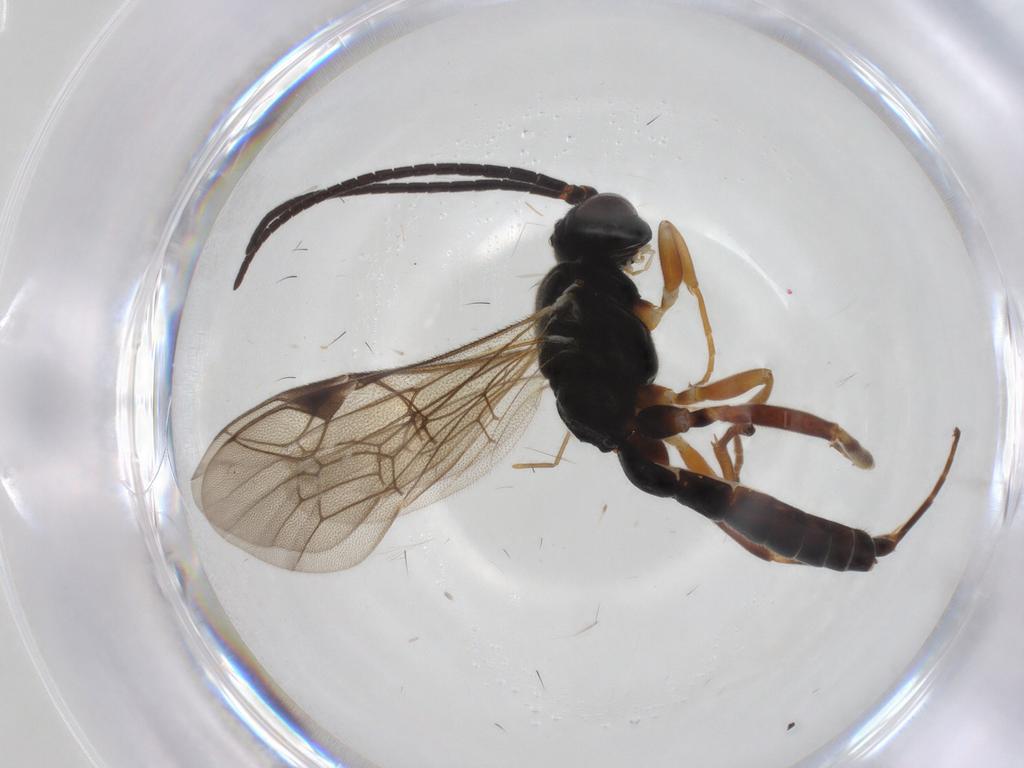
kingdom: Animalia
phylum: Arthropoda
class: Insecta
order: Hymenoptera
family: Ichneumonidae
